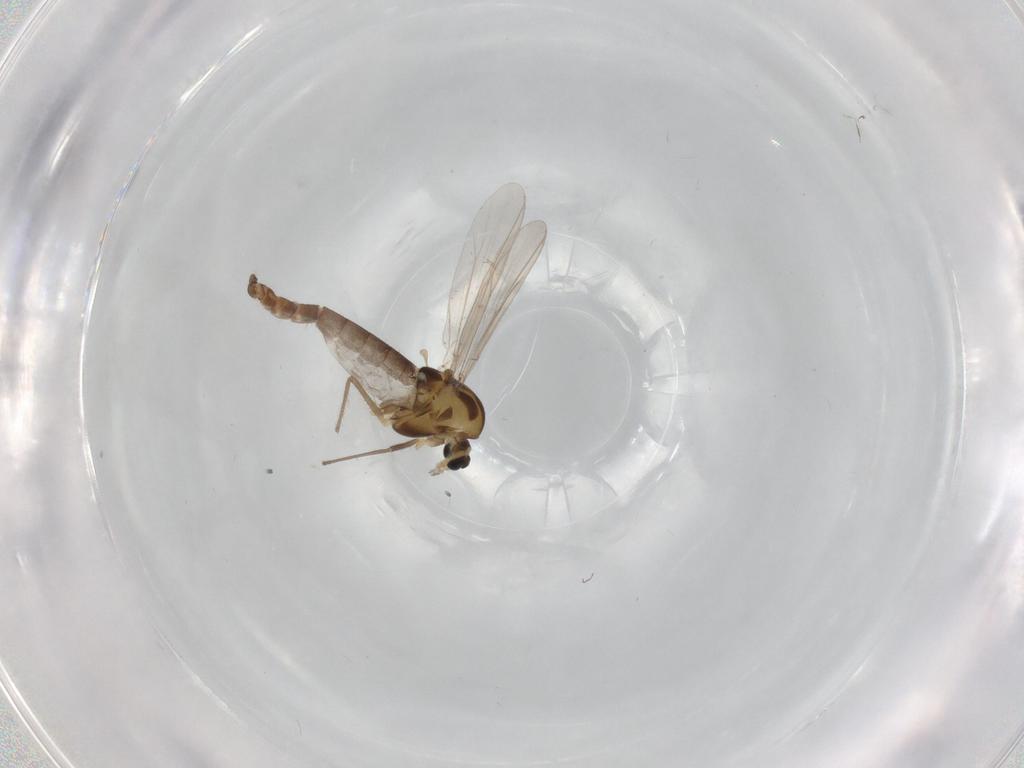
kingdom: Animalia
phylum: Arthropoda
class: Insecta
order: Diptera
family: Chironomidae
